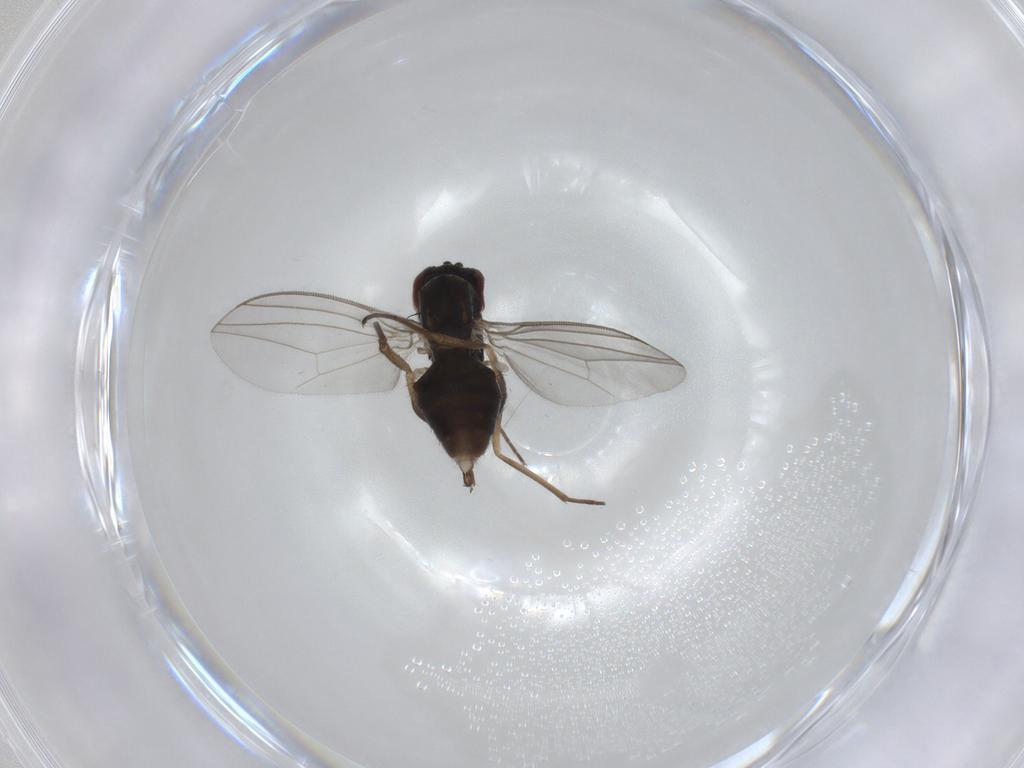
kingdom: Animalia
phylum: Arthropoda
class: Insecta
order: Diptera
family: Dolichopodidae
